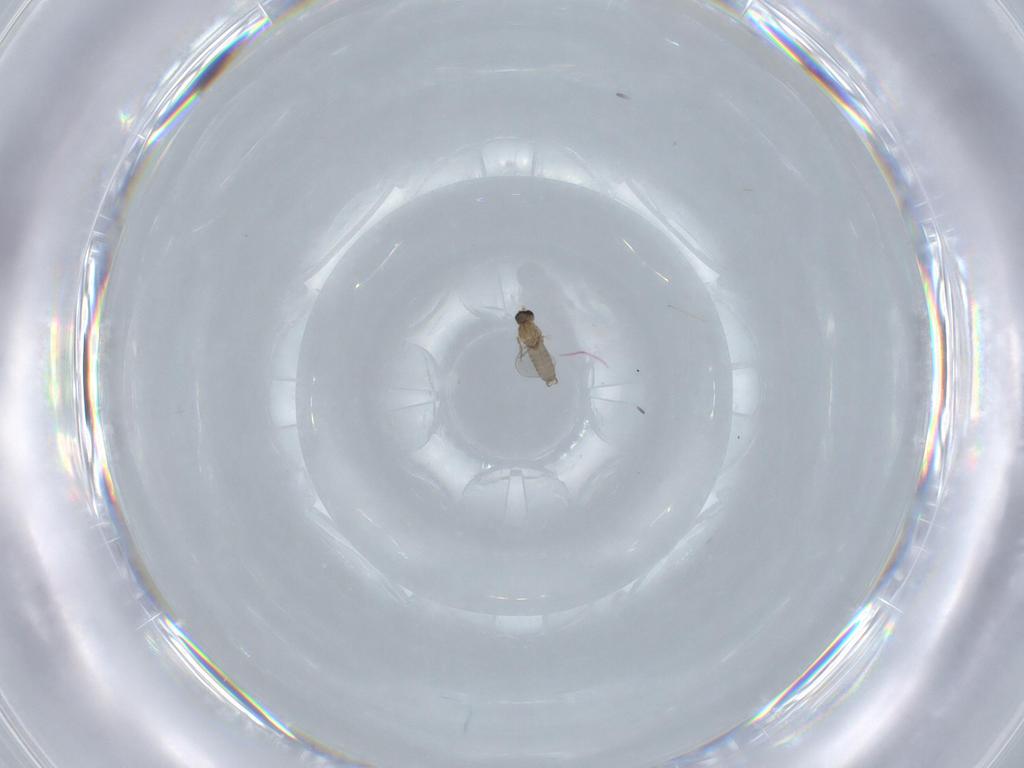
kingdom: Animalia
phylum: Arthropoda
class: Insecta
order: Diptera
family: Cecidomyiidae
